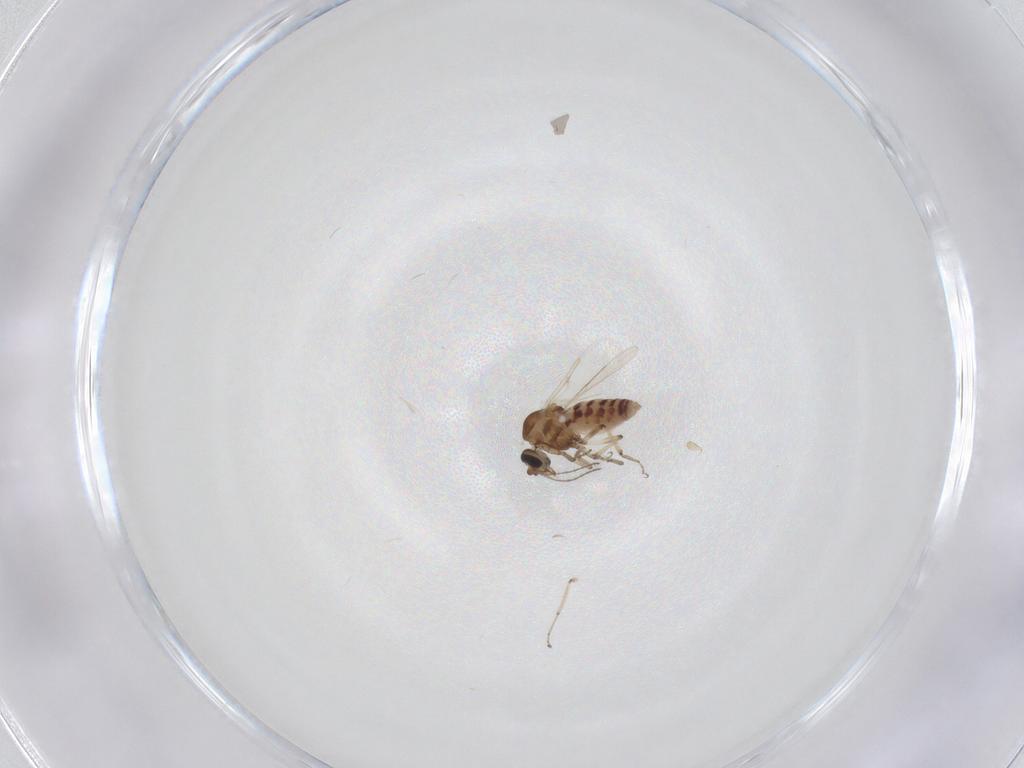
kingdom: Animalia
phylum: Arthropoda
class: Insecta
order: Diptera
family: Ceratopogonidae
